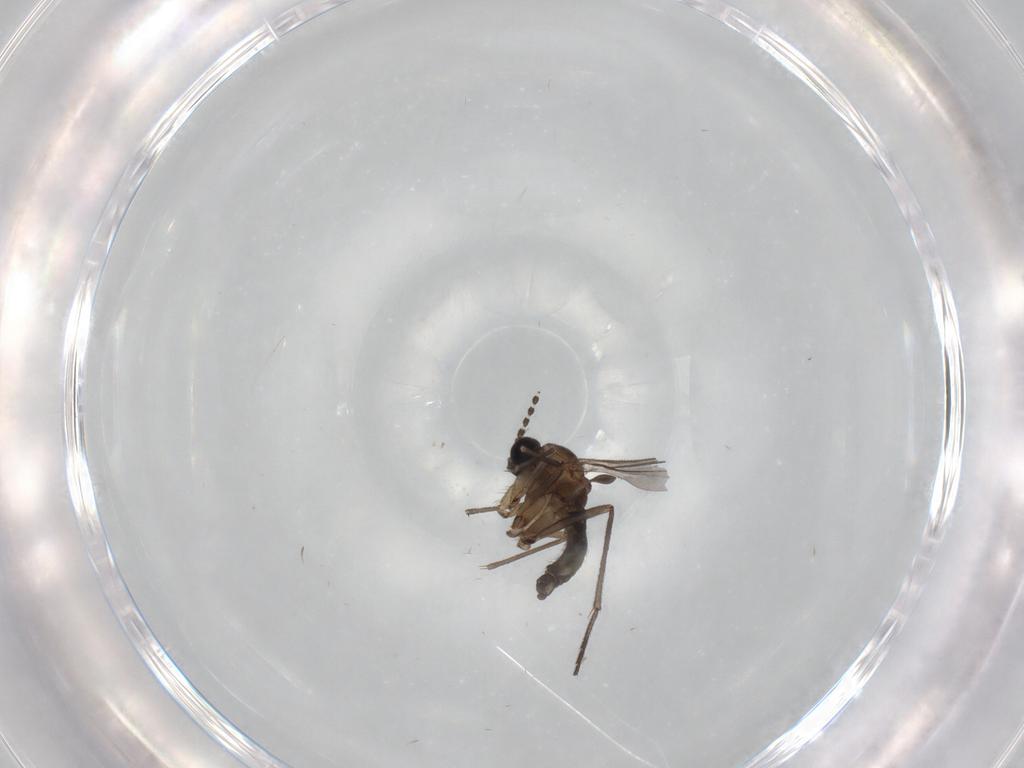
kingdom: Animalia
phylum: Arthropoda
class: Insecta
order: Diptera
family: Sciaridae
